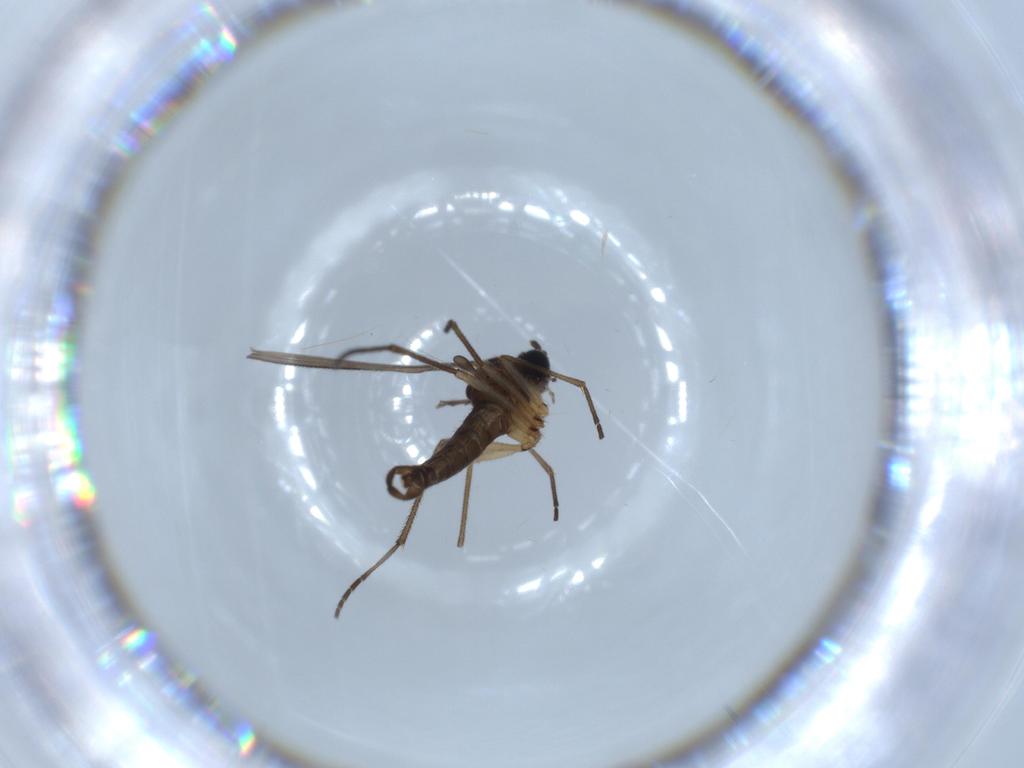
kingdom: Animalia
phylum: Arthropoda
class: Insecta
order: Diptera
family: Sciaridae
